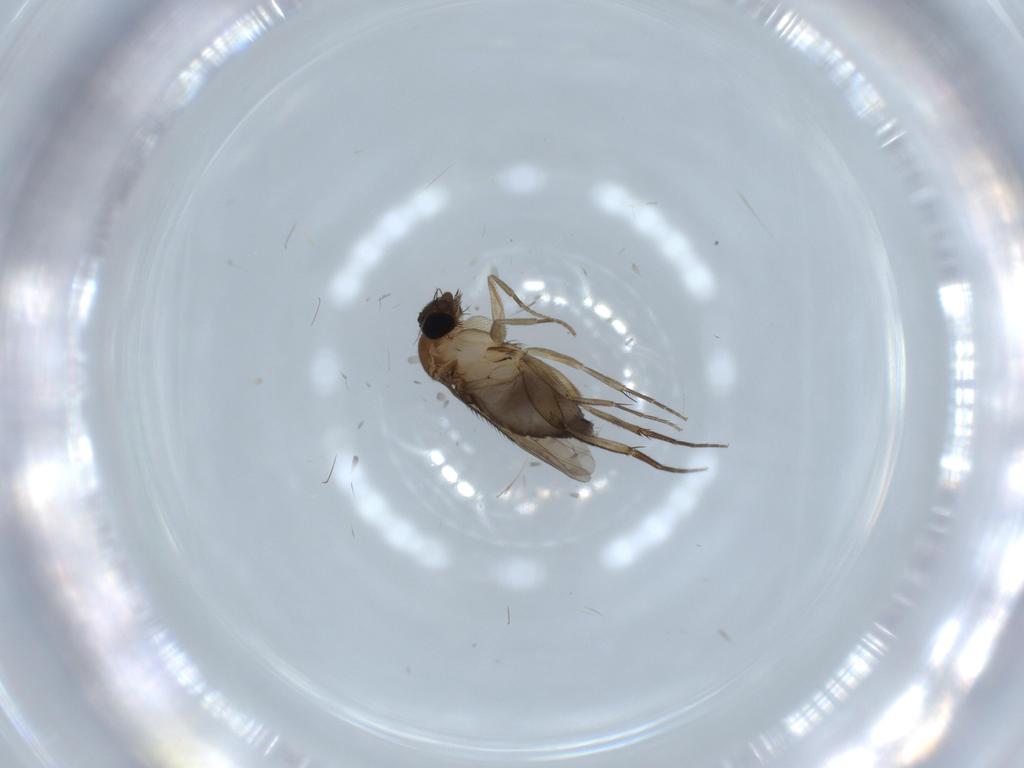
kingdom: Animalia
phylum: Arthropoda
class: Insecta
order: Diptera
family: Phoridae
